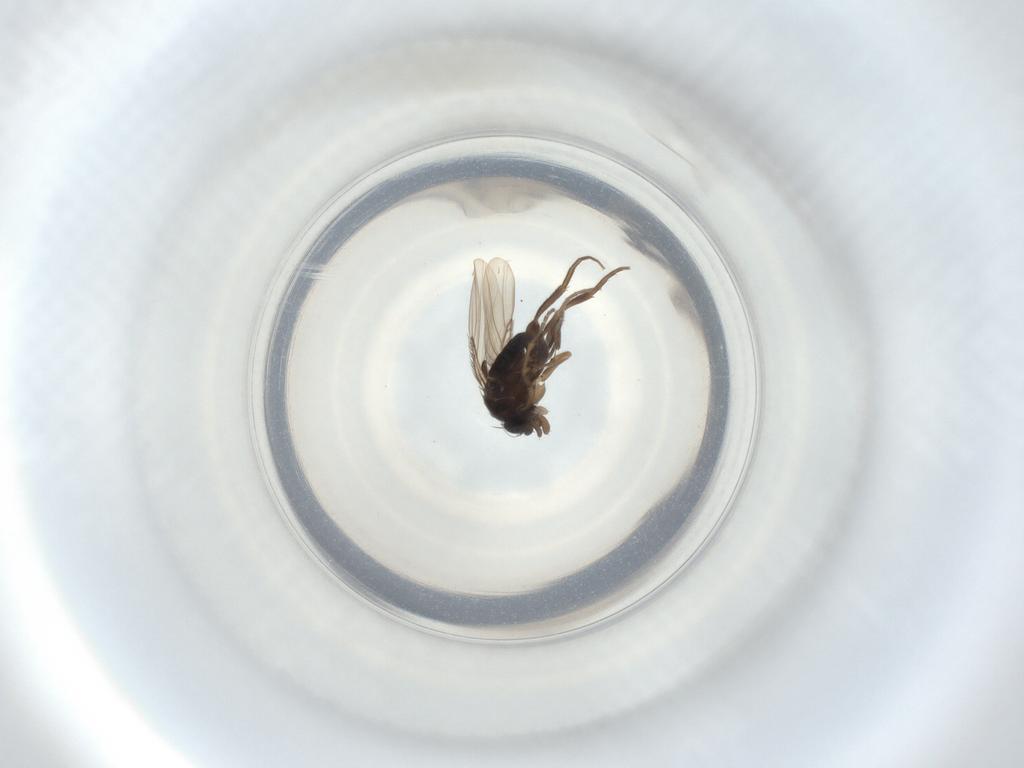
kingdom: Animalia
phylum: Arthropoda
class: Insecta
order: Diptera
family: Phoridae
